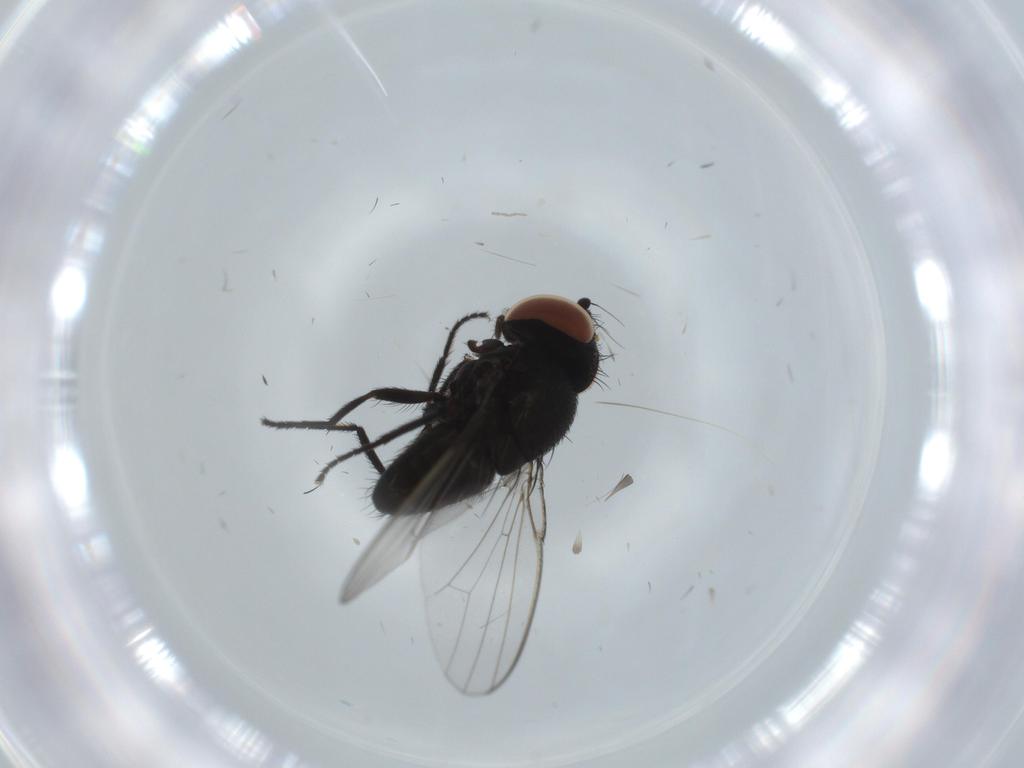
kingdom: Animalia
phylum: Arthropoda
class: Insecta
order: Diptera
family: Milichiidae
